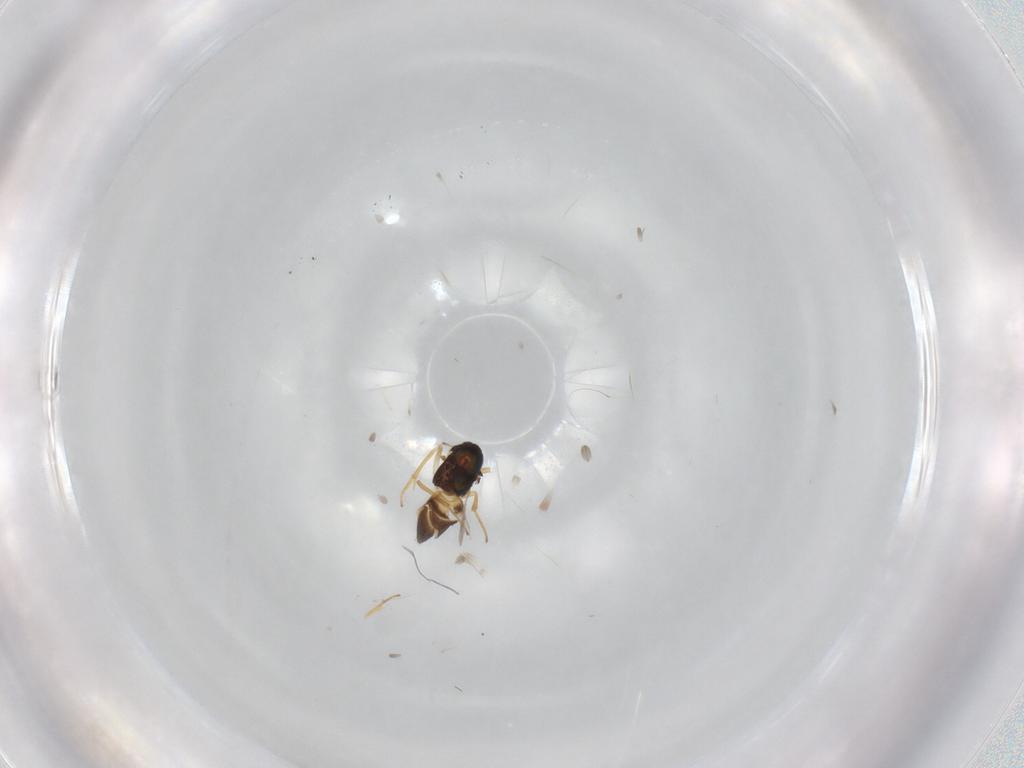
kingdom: Animalia
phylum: Arthropoda
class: Insecta
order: Hymenoptera
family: Encyrtidae
